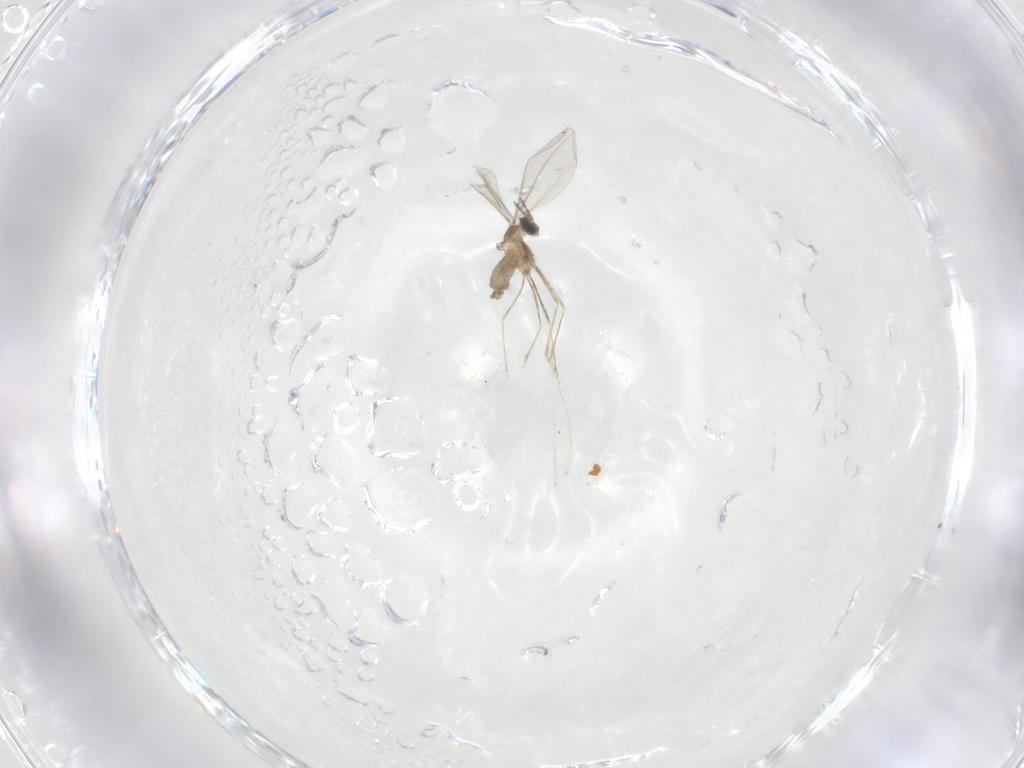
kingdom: Animalia
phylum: Arthropoda
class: Insecta
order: Diptera
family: Cecidomyiidae
